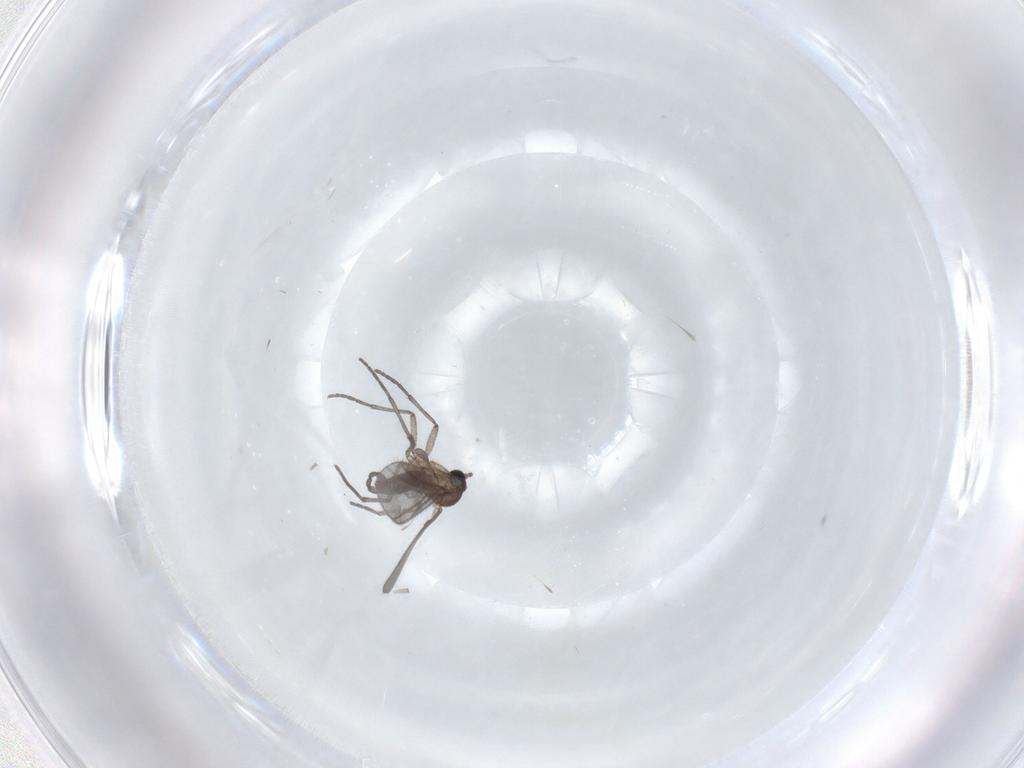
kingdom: Animalia
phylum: Arthropoda
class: Insecta
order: Diptera
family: Sciaridae
